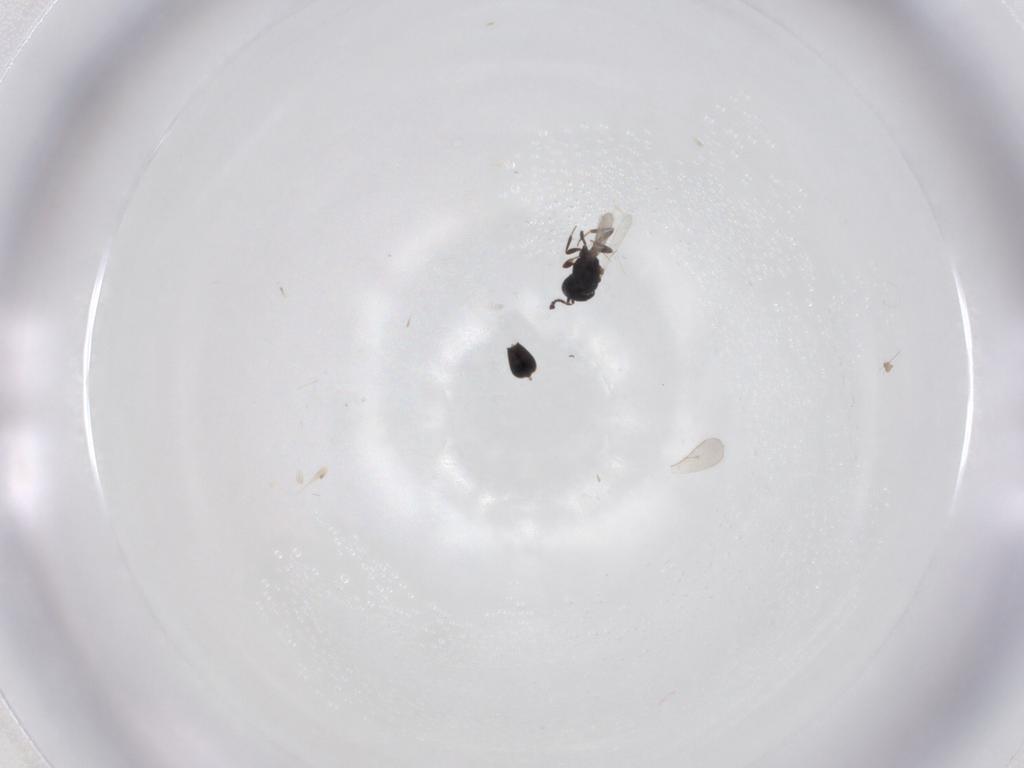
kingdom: Animalia
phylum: Arthropoda
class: Insecta
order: Hymenoptera
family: Scelionidae
